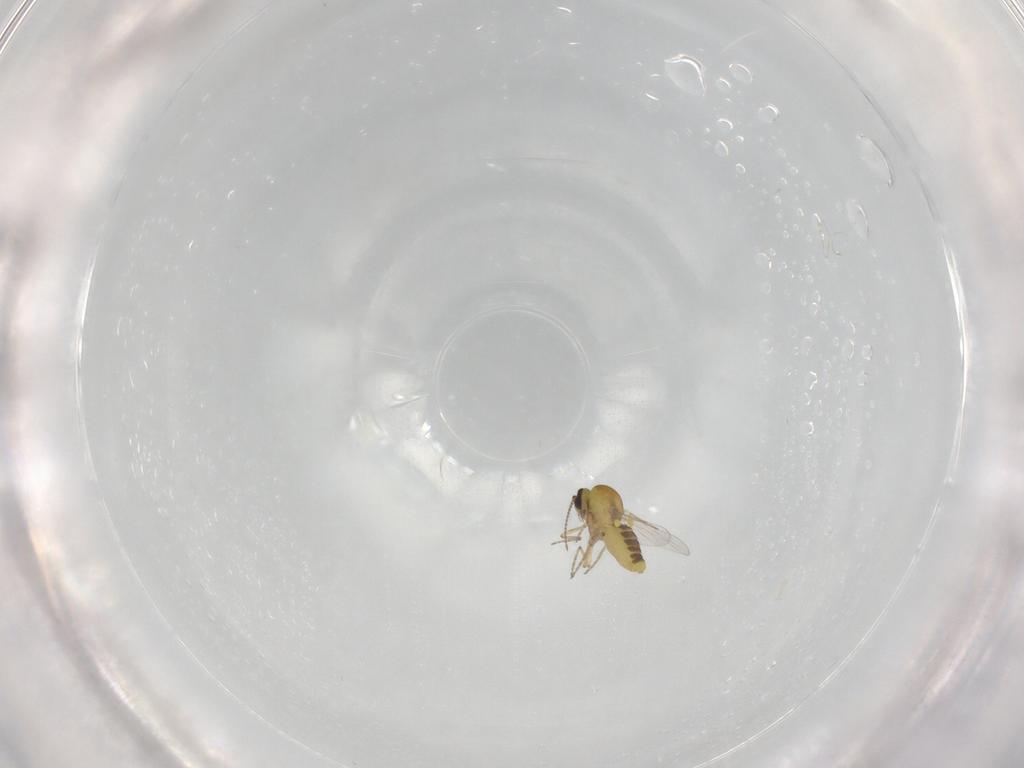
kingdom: Animalia
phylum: Arthropoda
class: Insecta
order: Diptera
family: Ceratopogonidae
